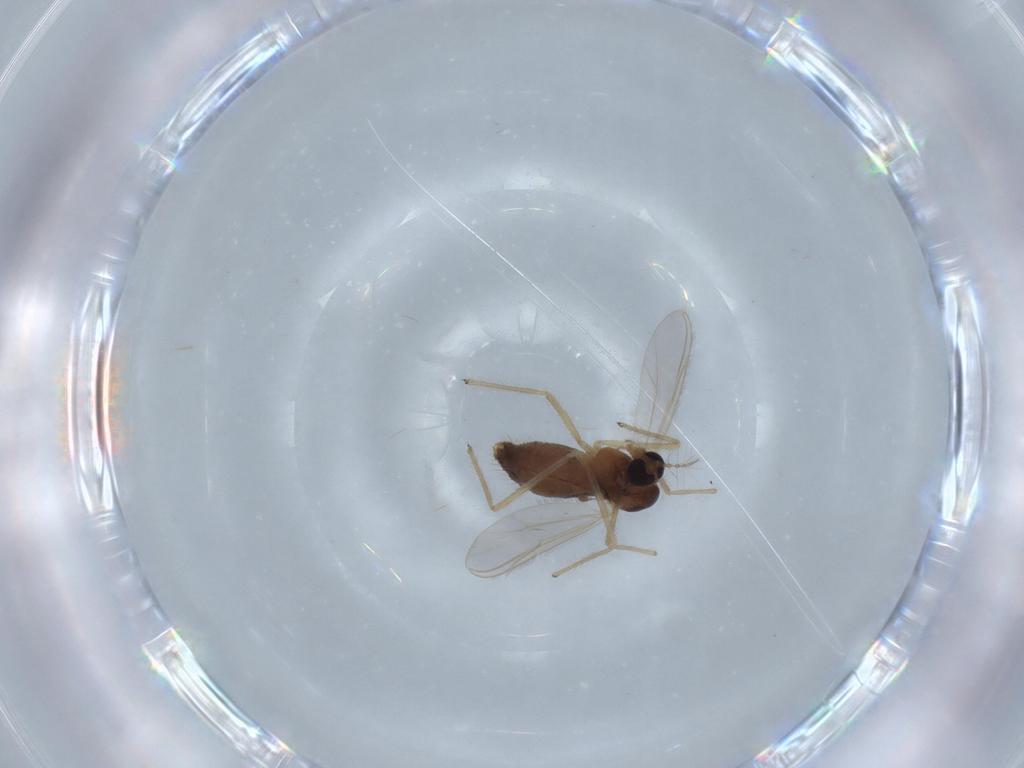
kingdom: Animalia
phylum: Arthropoda
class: Insecta
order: Diptera
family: Chironomidae
